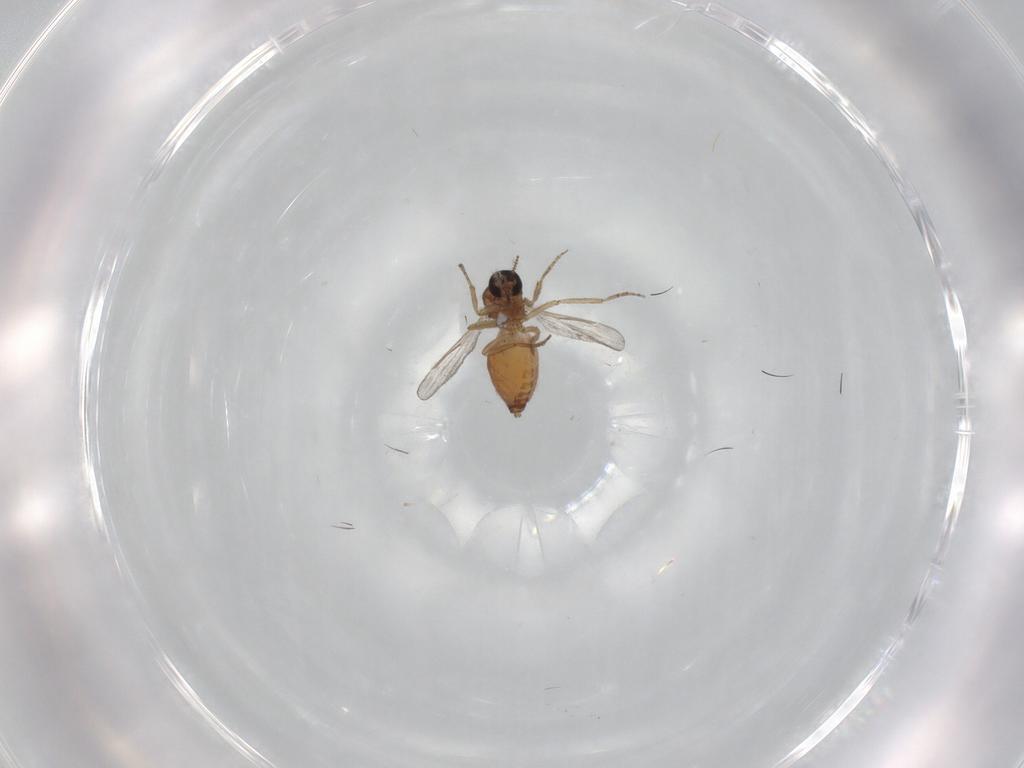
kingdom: Animalia
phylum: Arthropoda
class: Insecta
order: Diptera
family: Ceratopogonidae
